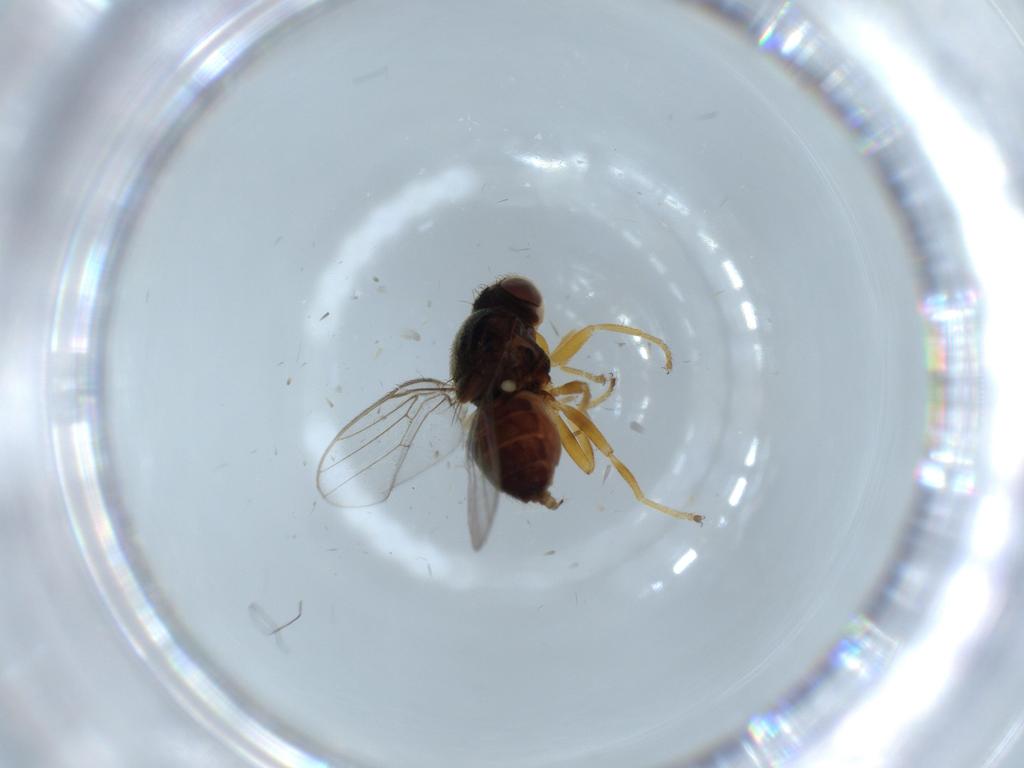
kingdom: Animalia
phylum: Arthropoda
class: Insecta
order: Diptera
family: Chloropidae
